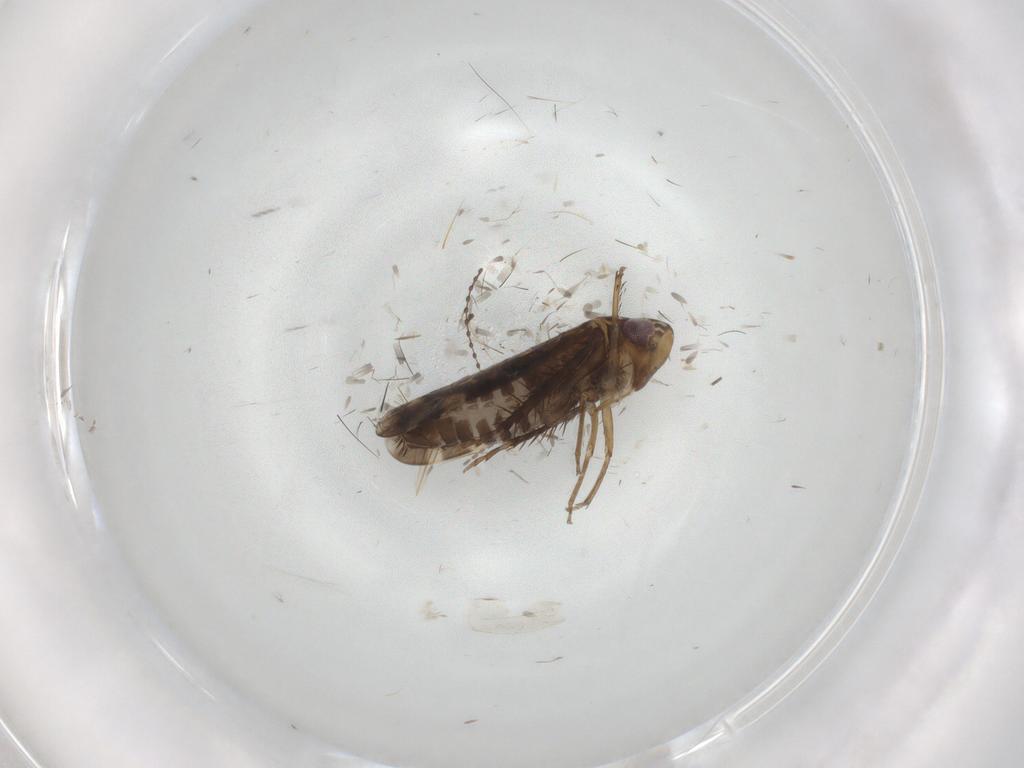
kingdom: Animalia
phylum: Arthropoda
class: Insecta
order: Hemiptera
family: Cicadellidae
